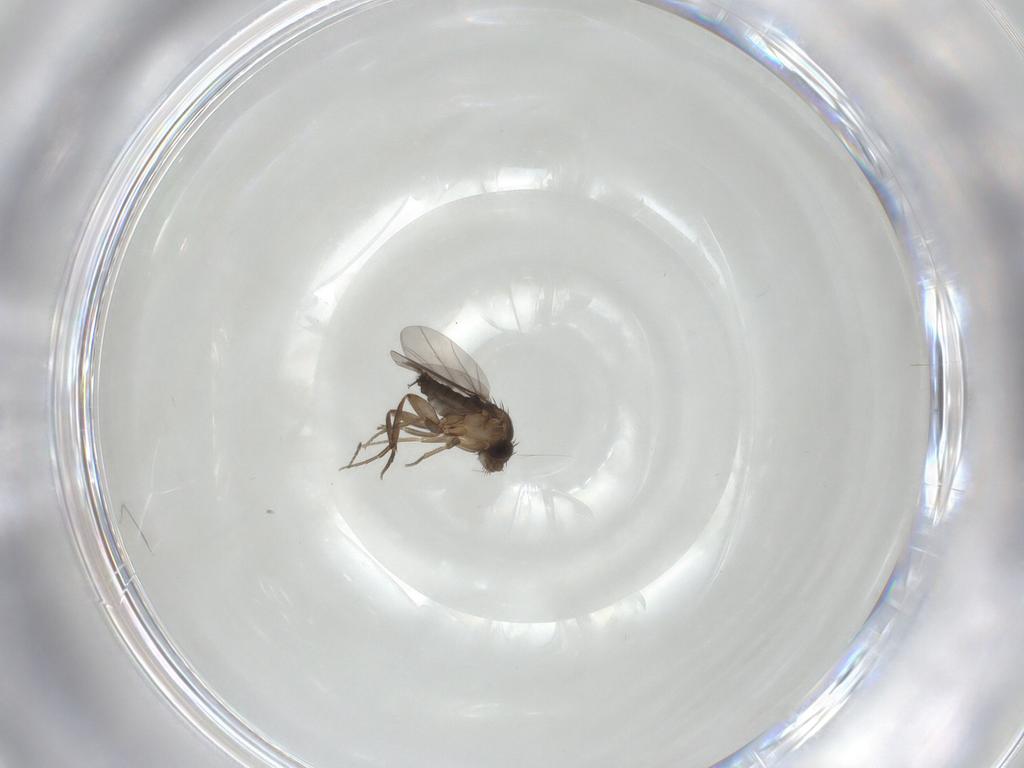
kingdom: Animalia
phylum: Arthropoda
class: Insecta
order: Diptera
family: Phoridae
